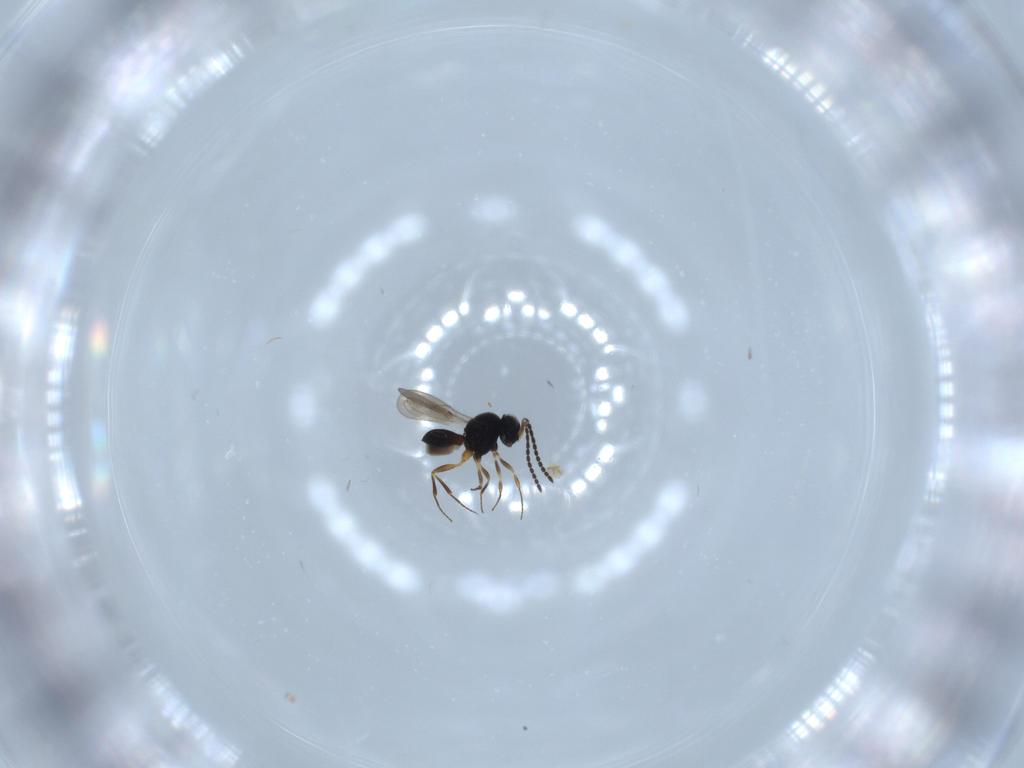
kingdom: Animalia
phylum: Arthropoda
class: Insecta
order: Hymenoptera
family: Scelionidae
